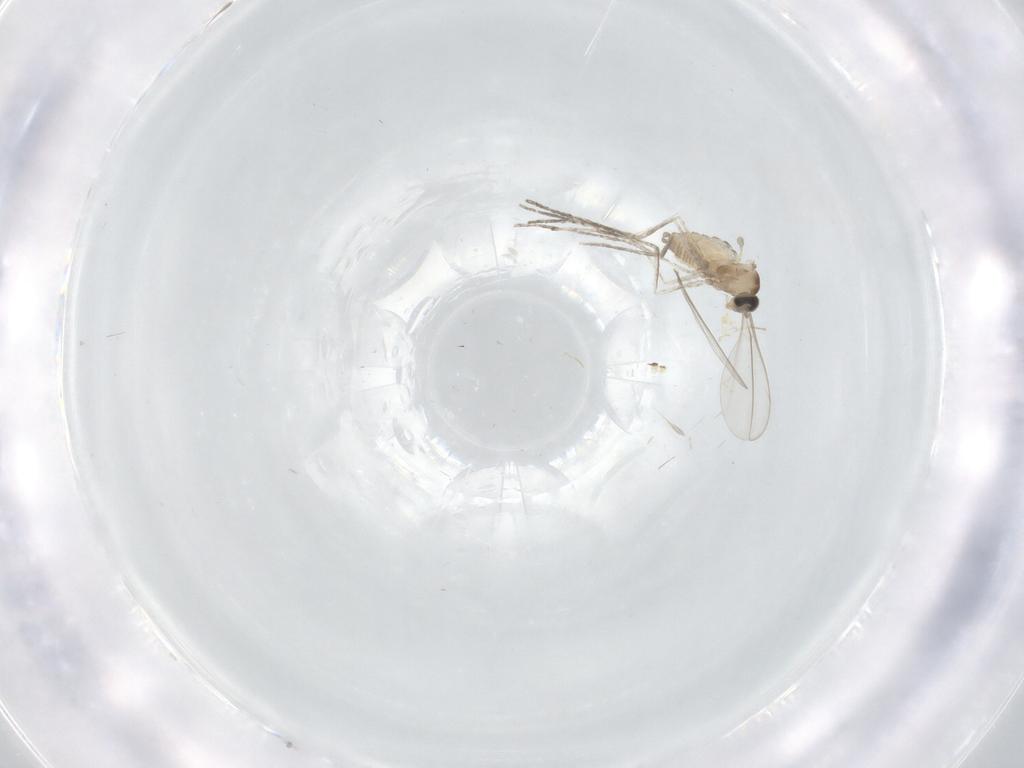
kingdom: Animalia
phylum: Arthropoda
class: Insecta
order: Diptera
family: Chironomidae
